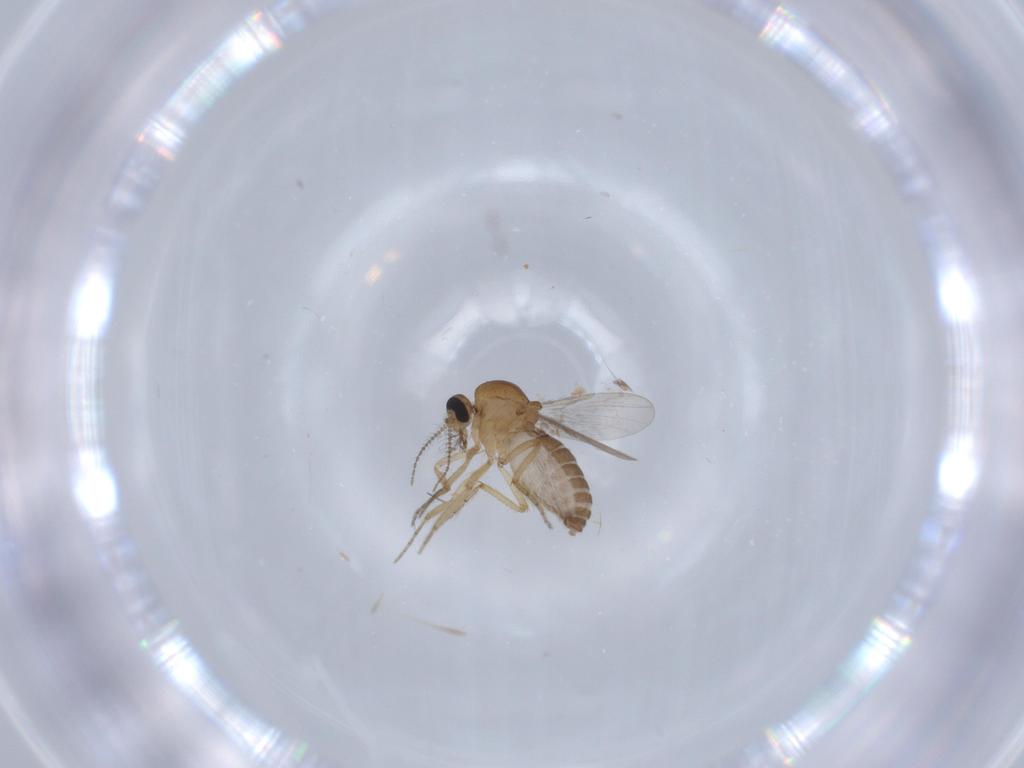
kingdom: Animalia
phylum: Arthropoda
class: Insecta
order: Diptera
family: Ceratopogonidae
